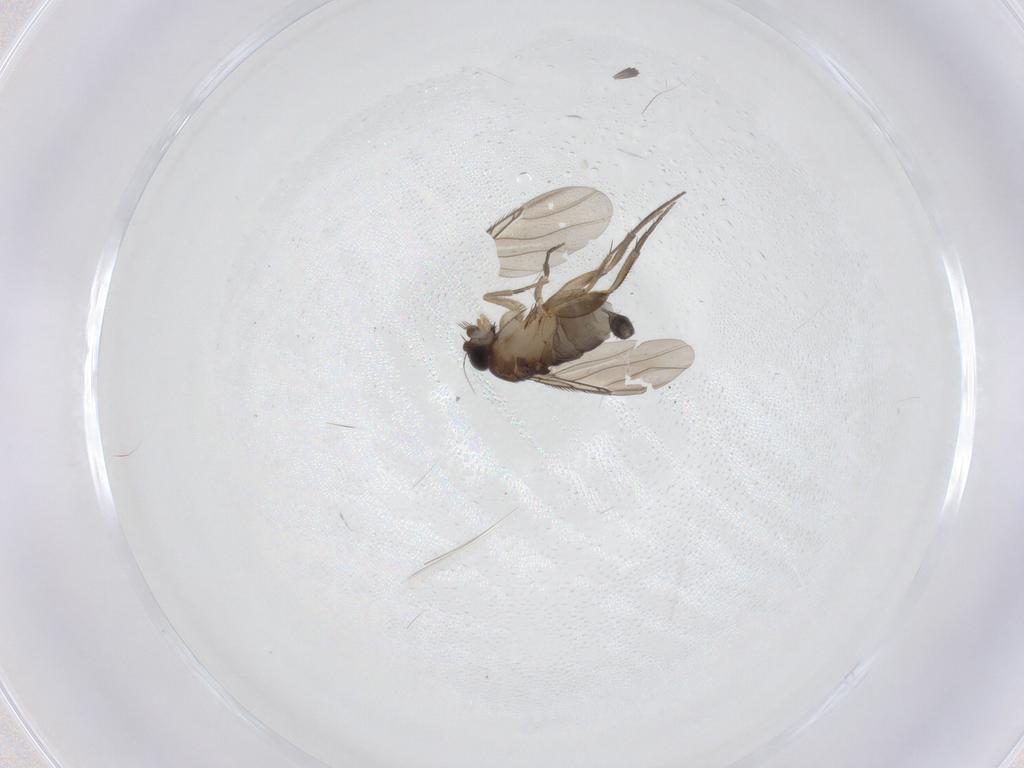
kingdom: Animalia
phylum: Arthropoda
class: Insecta
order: Diptera
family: Phoridae
